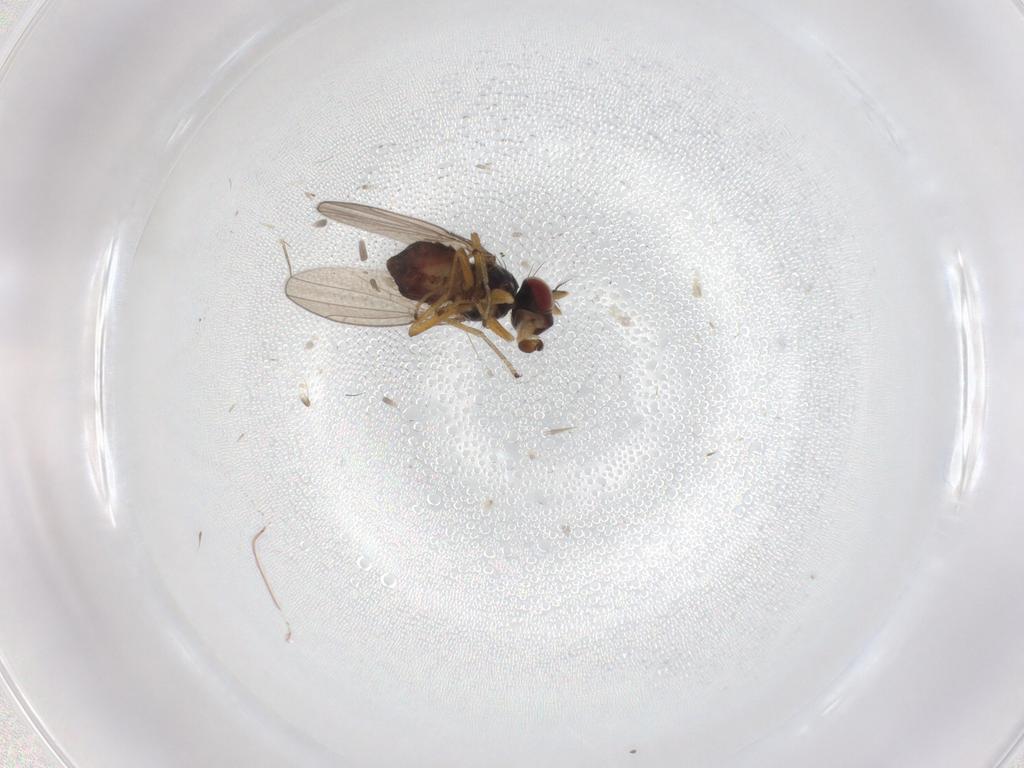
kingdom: Animalia
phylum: Arthropoda
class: Insecta
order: Diptera
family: Ephydridae
